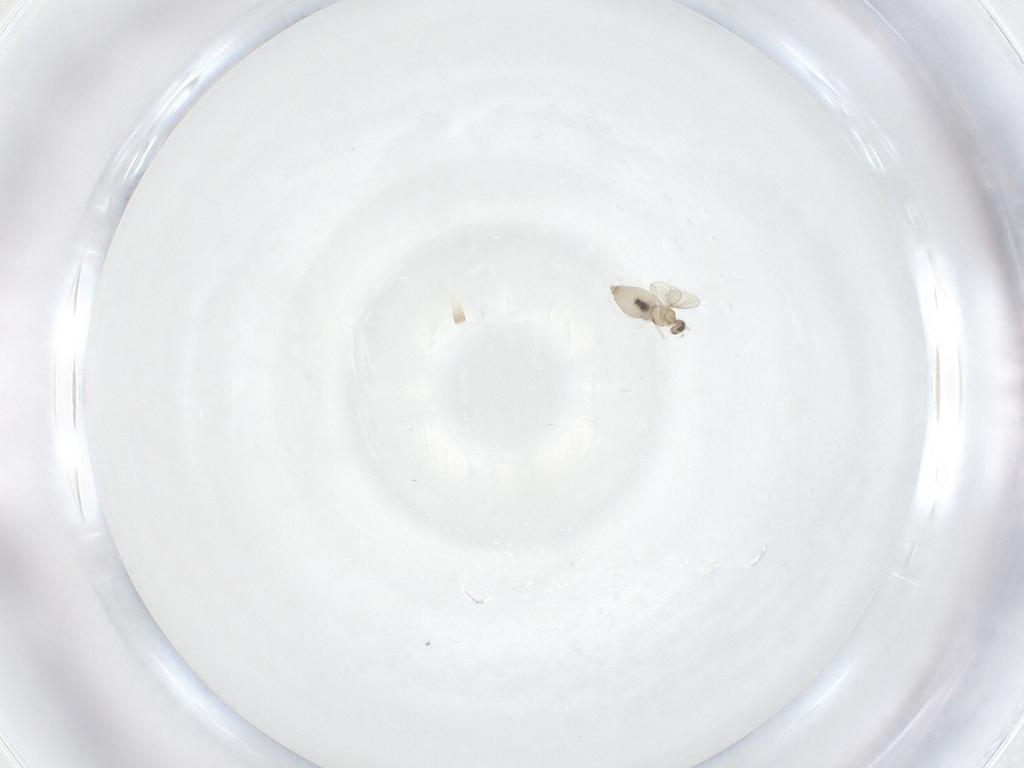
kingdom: Animalia
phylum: Arthropoda
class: Insecta
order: Diptera
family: Cecidomyiidae
